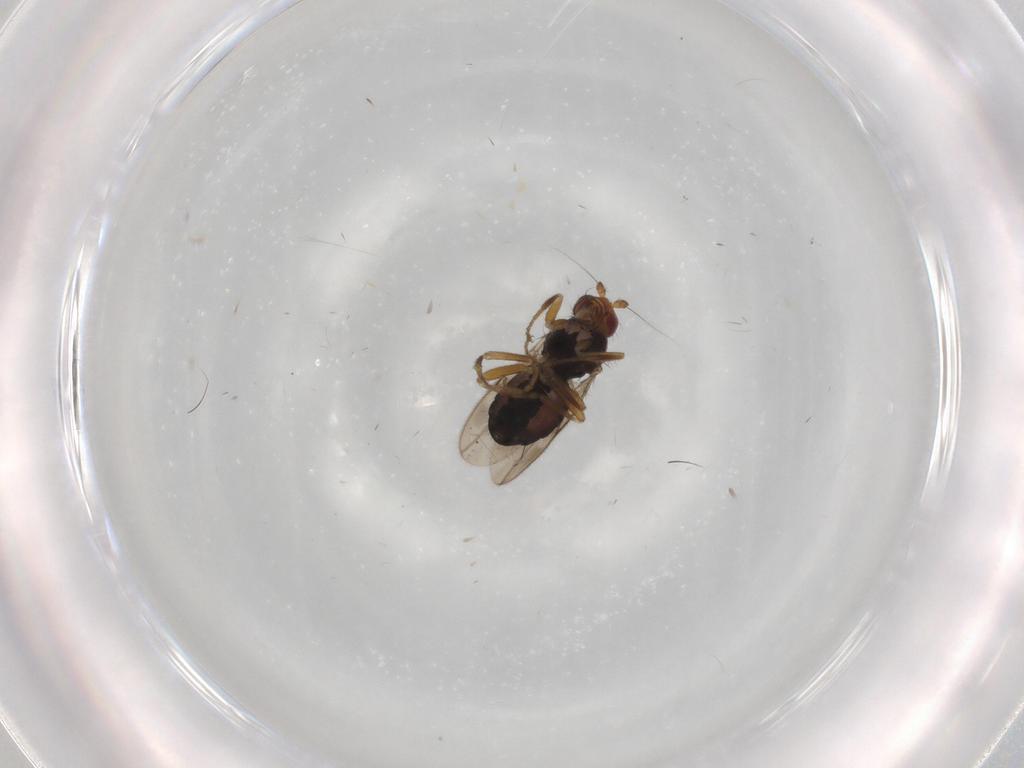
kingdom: Animalia
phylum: Arthropoda
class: Insecta
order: Diptera
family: Sphaeroceridae
